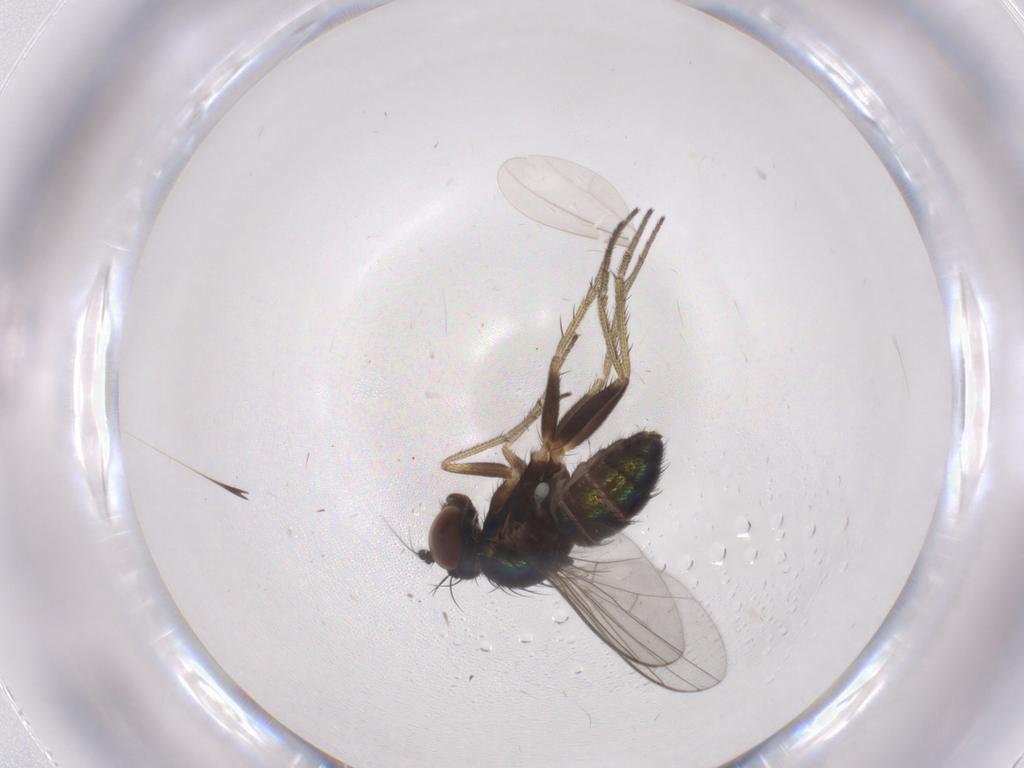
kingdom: Animalia
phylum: Arthropoda
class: Insecta
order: Diptera
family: Dolichopodidae
